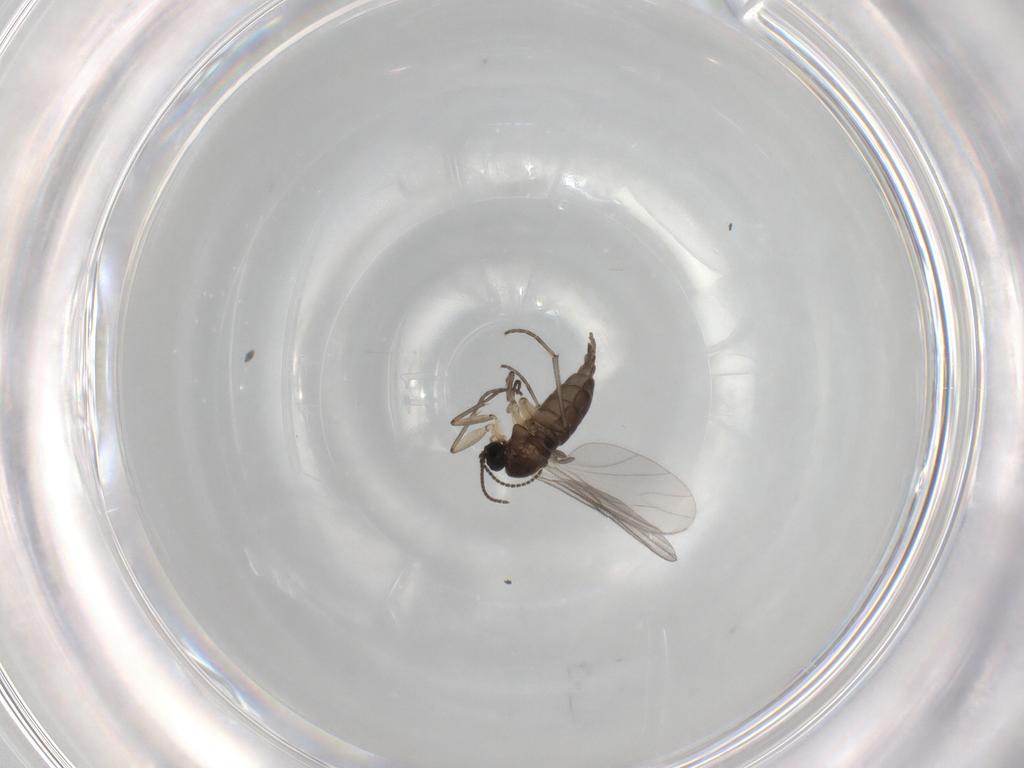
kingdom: Animalia
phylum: Arthropoda
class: Insecta
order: Diptera
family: Sciaridae
